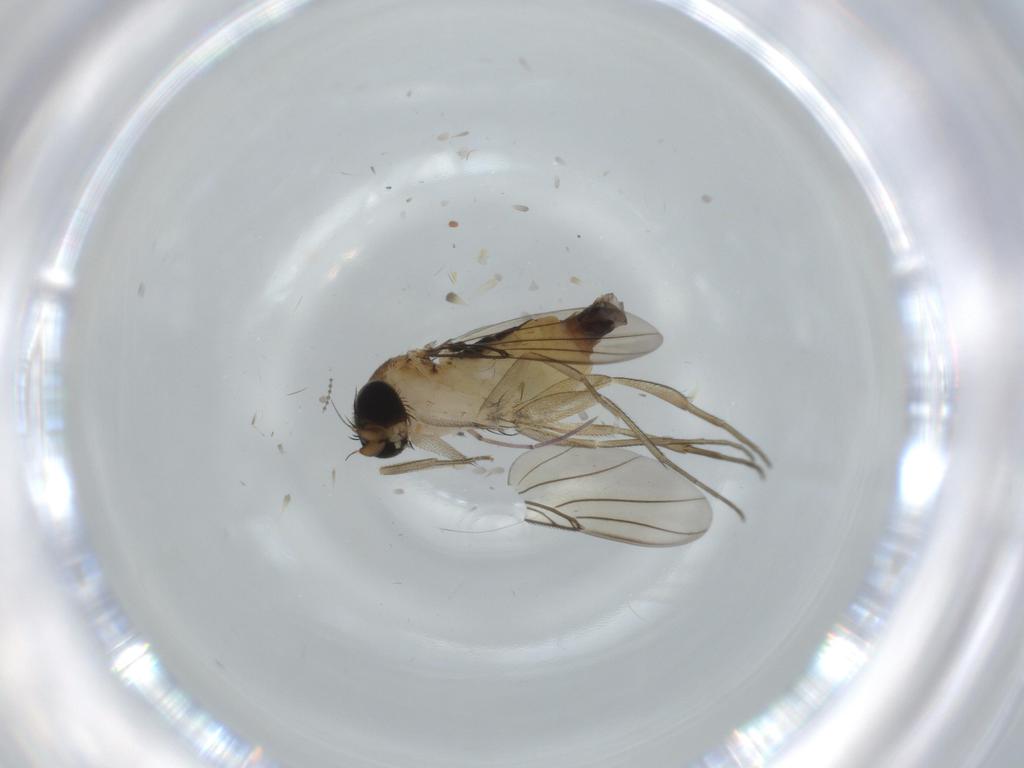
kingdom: Animalia
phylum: Arthropoda
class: Insecta
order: Diptera
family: Phoridae
